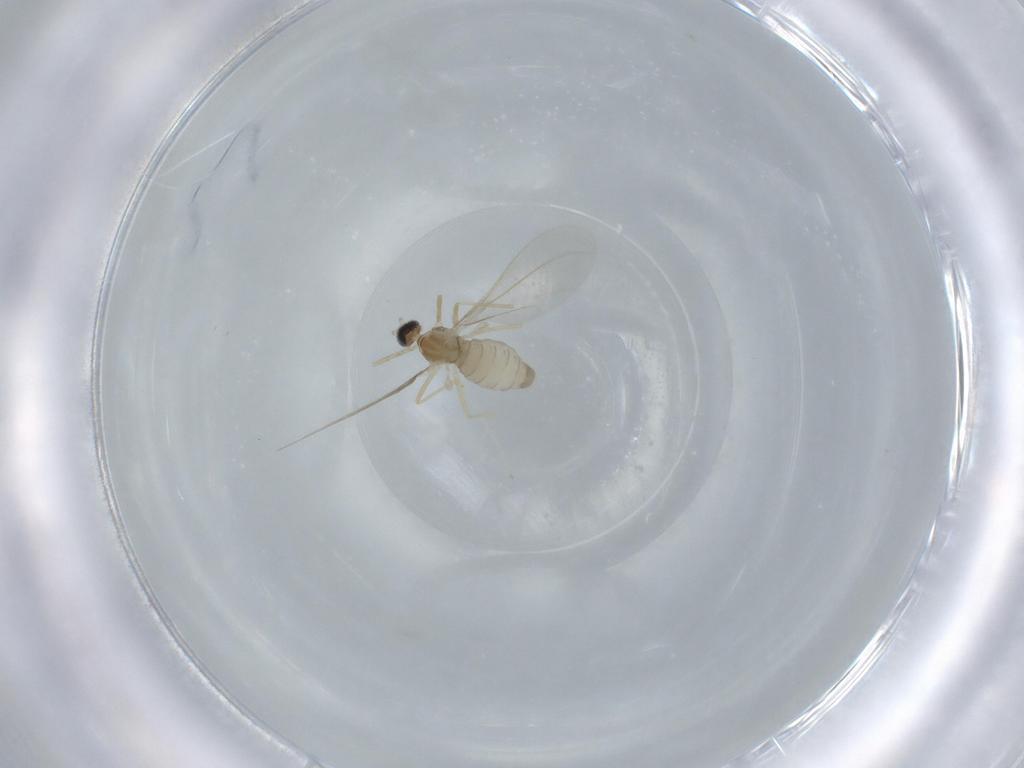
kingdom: Animalia
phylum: Arthropoda
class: Insecta
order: Diptera
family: Cecidomyiidae
